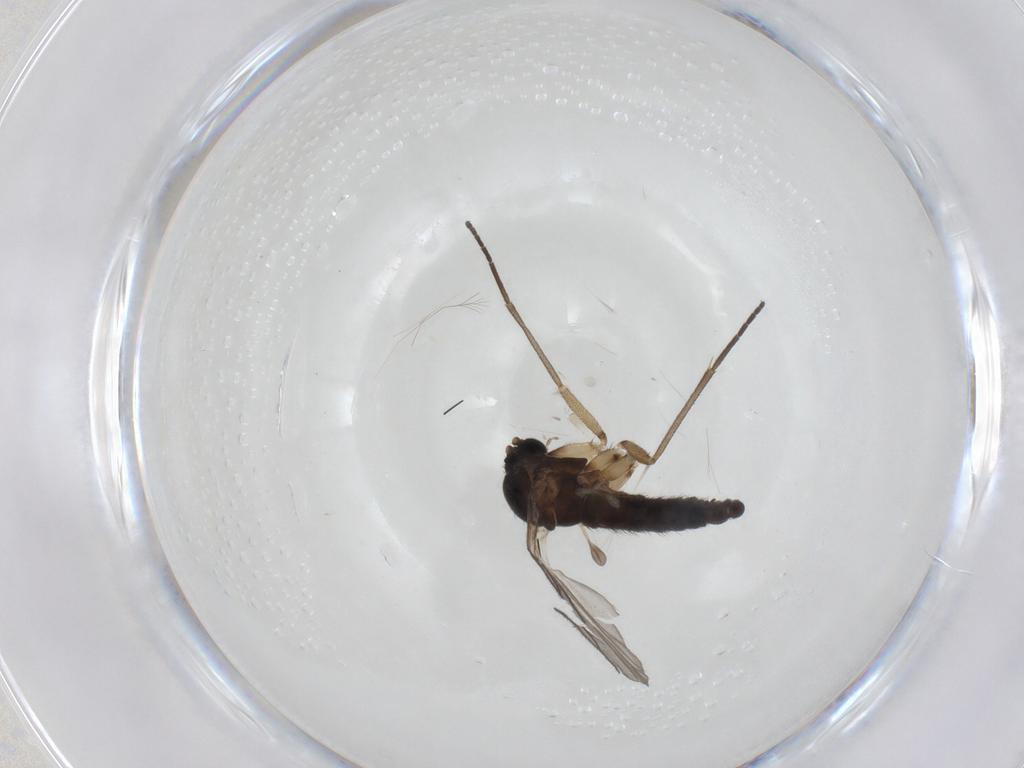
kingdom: Animalia
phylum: Arthropoda
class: Insecta
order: Diptera
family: Sciaridae
